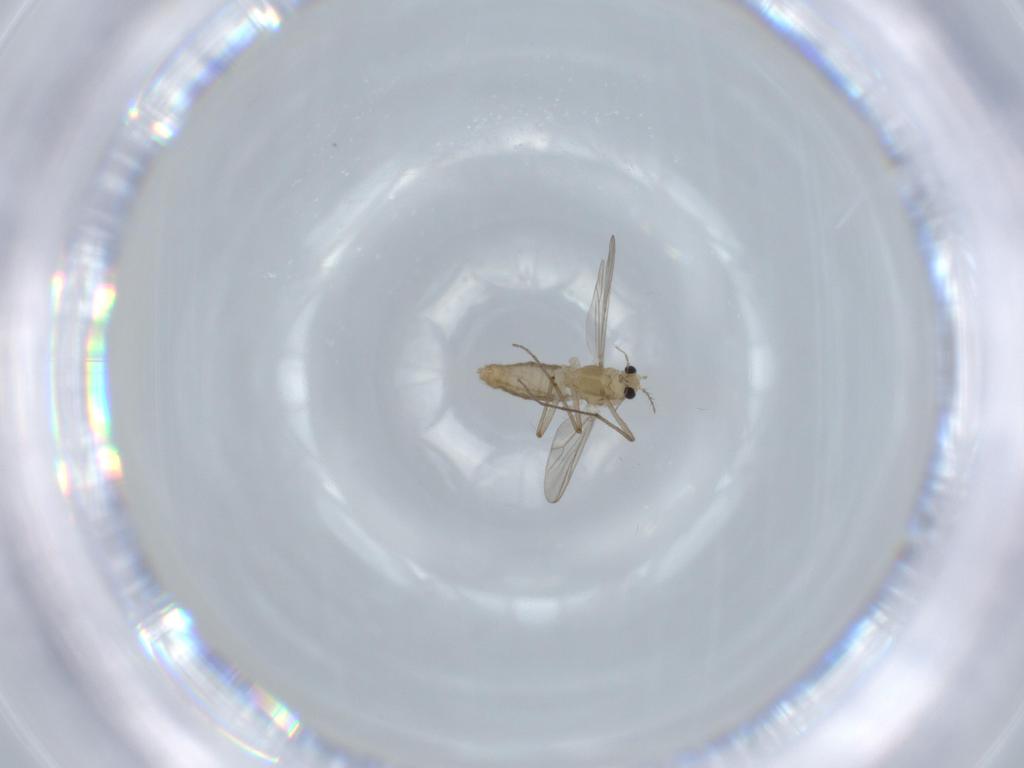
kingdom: Animalia
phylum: Arthropoda
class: Insecta
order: Diptera
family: Chironomidae
